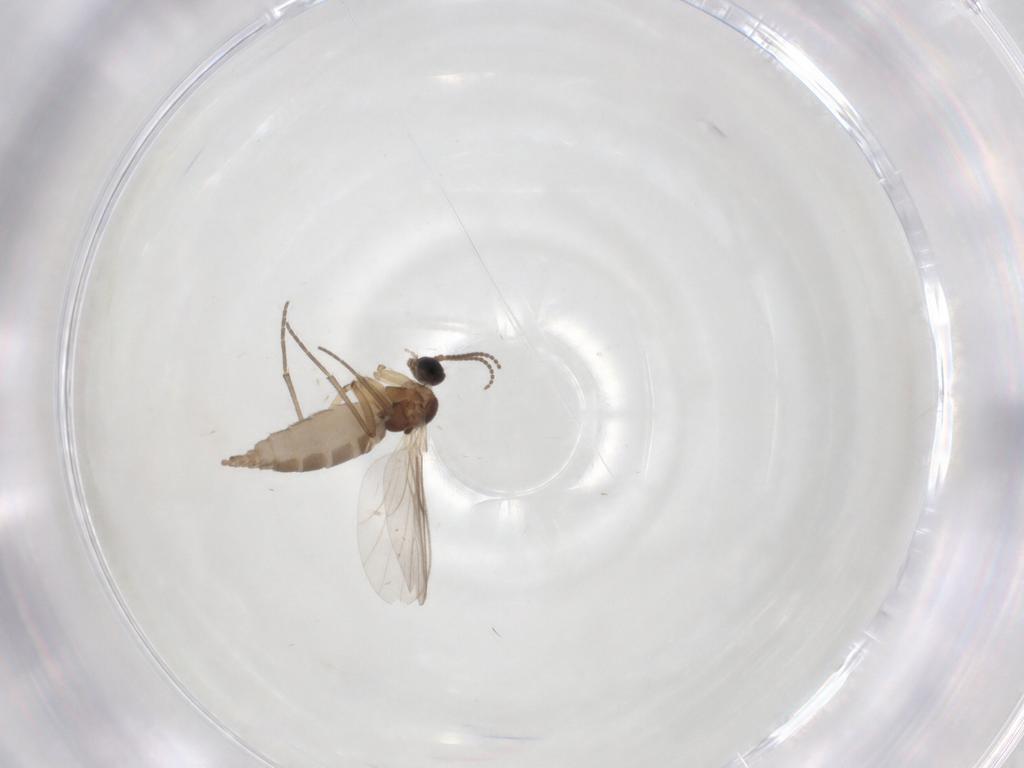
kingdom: Animalia
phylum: Arthropoda
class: Insecta
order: Diptera
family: Sciaridae
